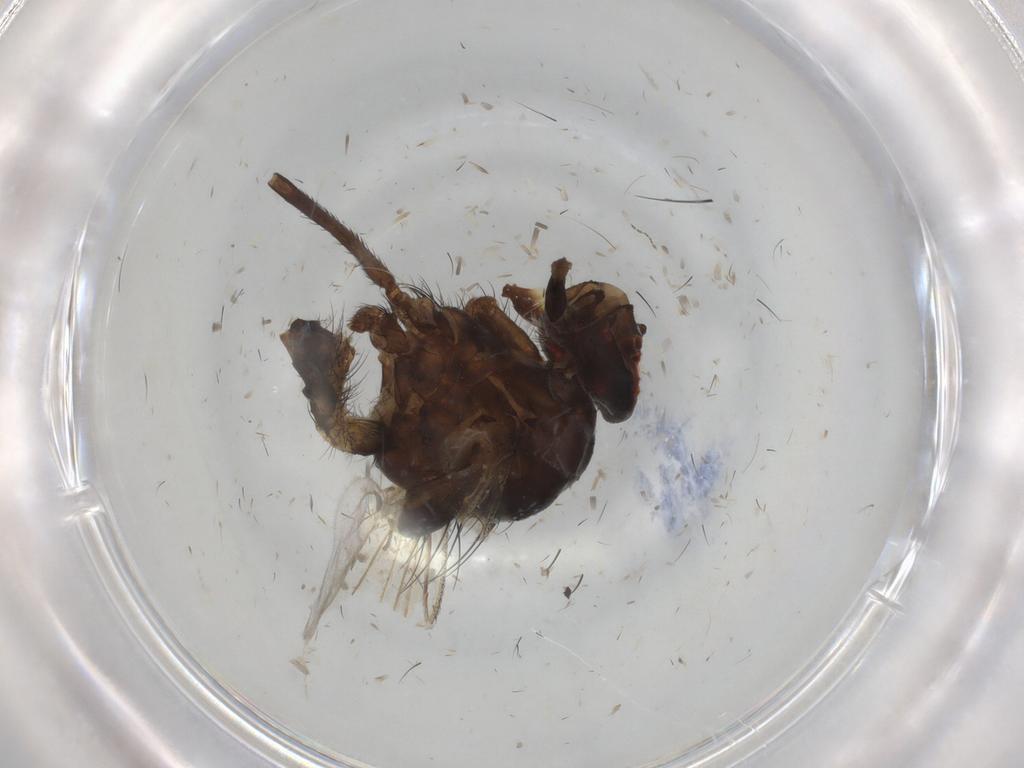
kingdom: Animalia
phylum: Arthropoda
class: Insecta
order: Diptera
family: Anthomyiidae
